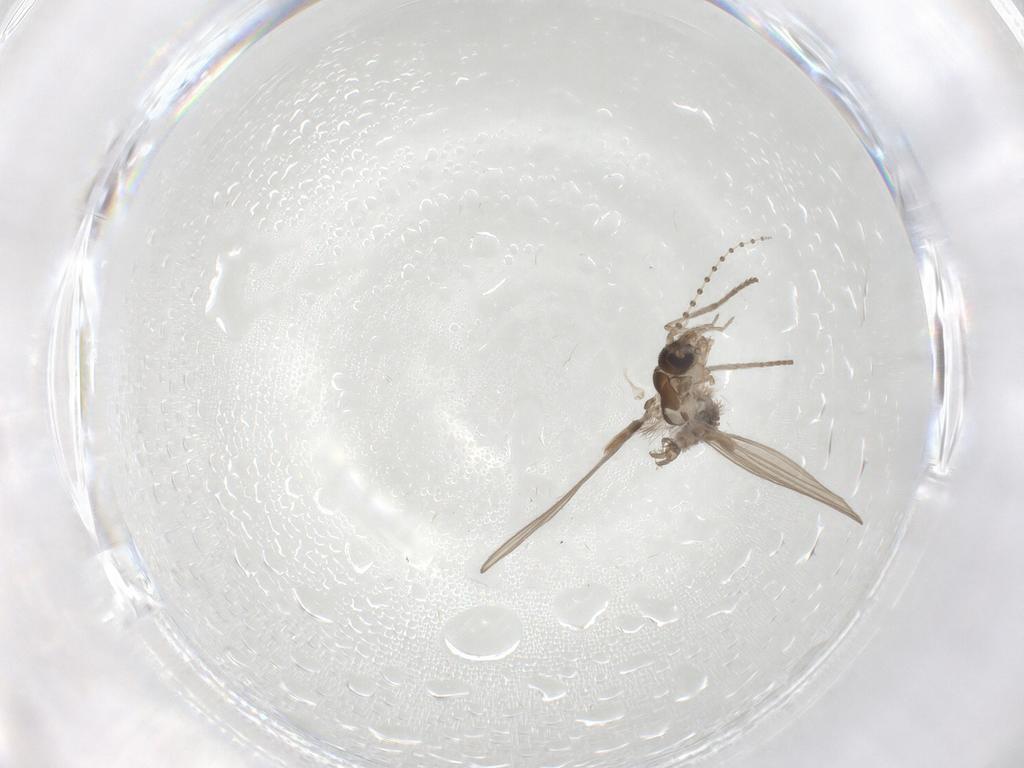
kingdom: Animalia
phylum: Arthropoda
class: Insecta
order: Diptera
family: Psychodidae
